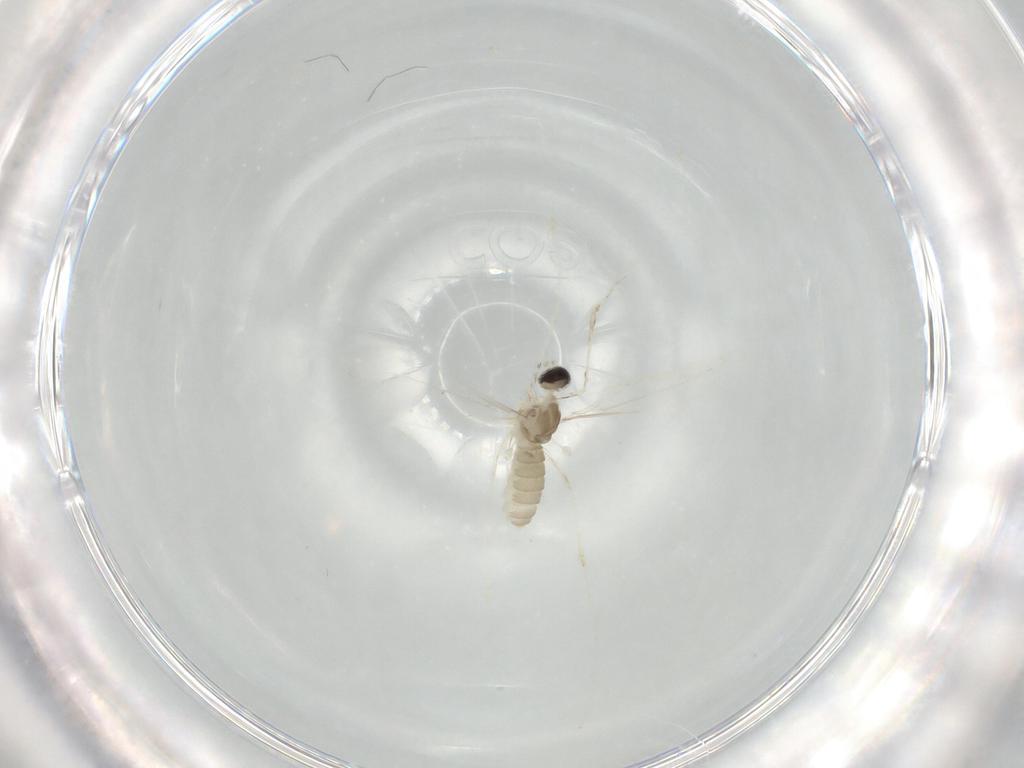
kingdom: Animalia
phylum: Arthropoda
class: Insecta
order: Diptera
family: Cecidomyiidae
